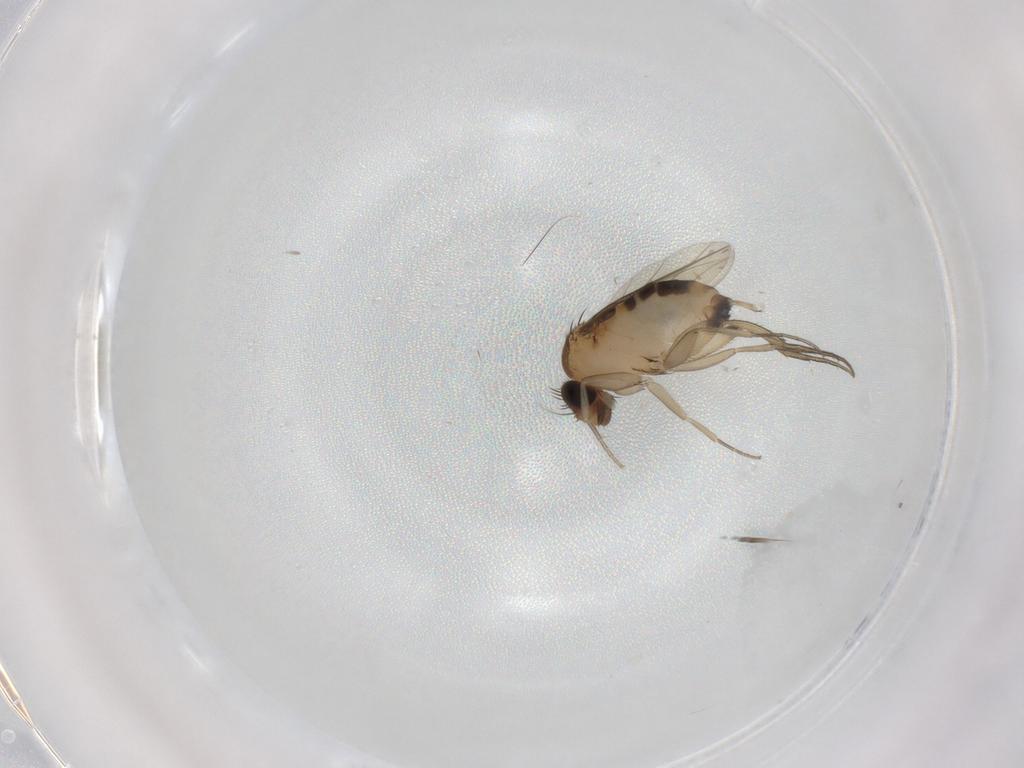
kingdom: Animalia
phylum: Arthropoda
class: Insecta
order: Diptera
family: Phoridae
